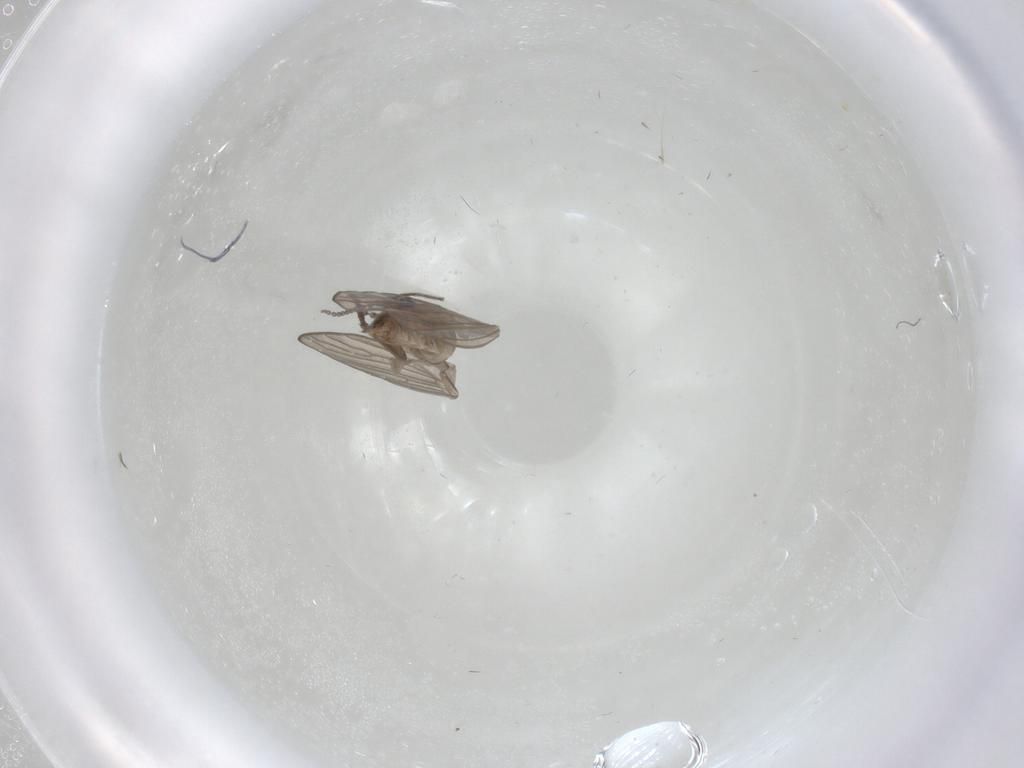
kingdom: Animalia
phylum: Arthropoda
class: Insecta
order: Diptera
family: Psychodidae
